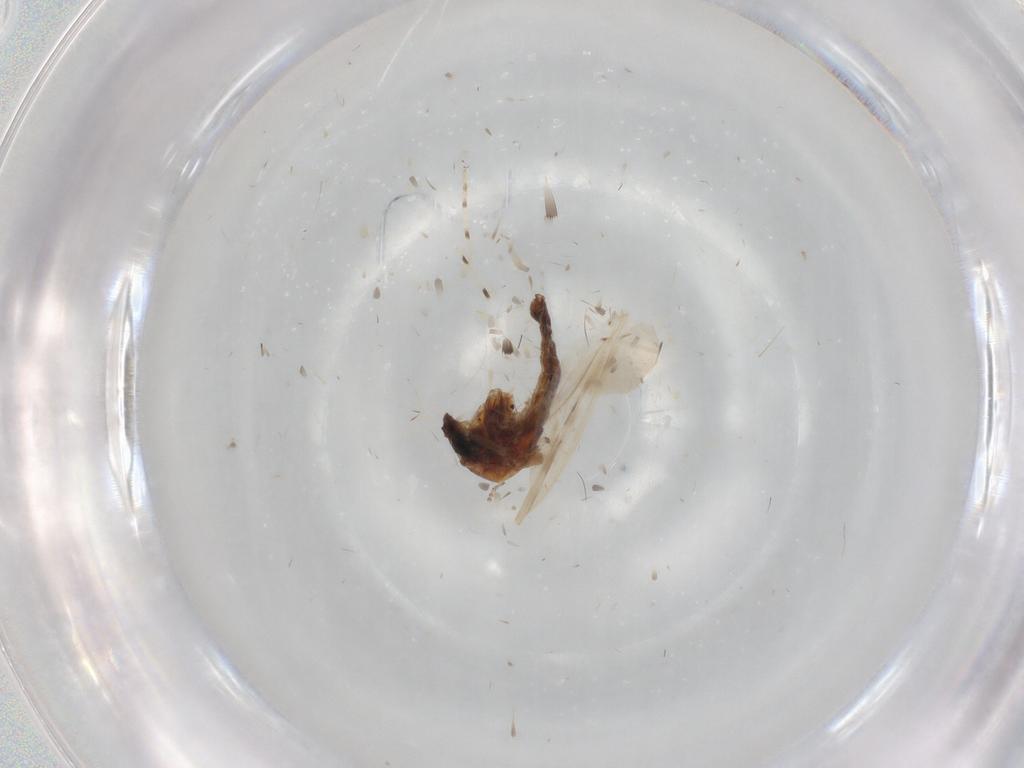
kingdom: Animalia
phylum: Arthropoda
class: Insecta
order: Diptera
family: Chironomidae
